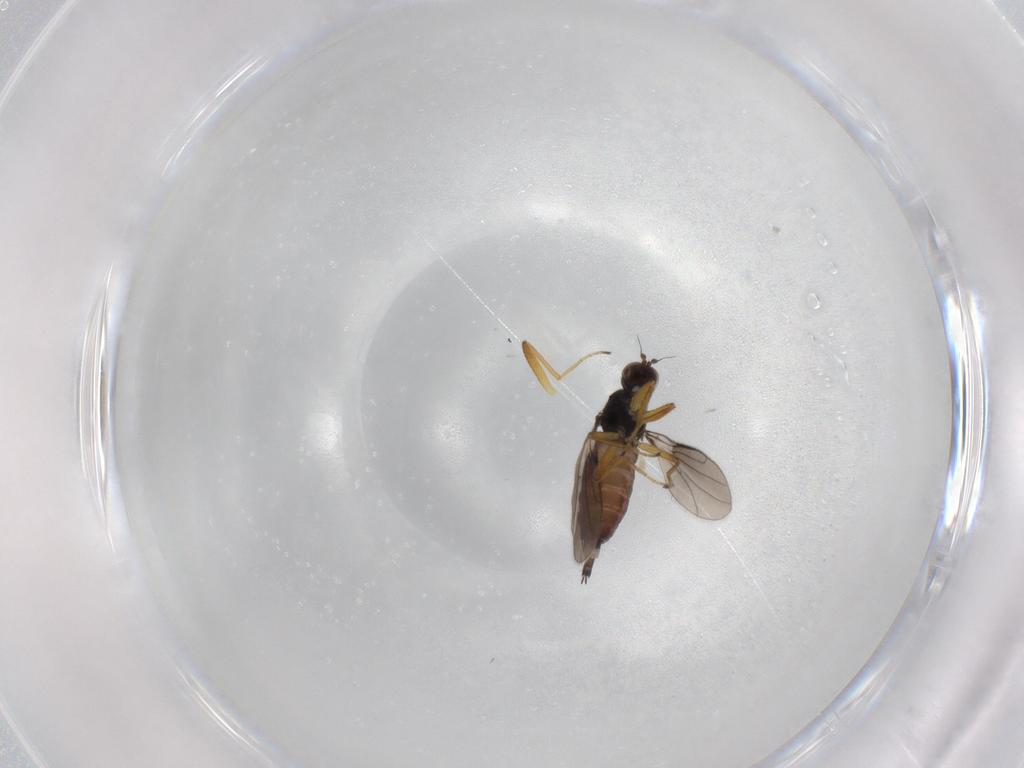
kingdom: Animalia
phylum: Arthropoda
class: Insecta
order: Diptera
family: Hybotidae
